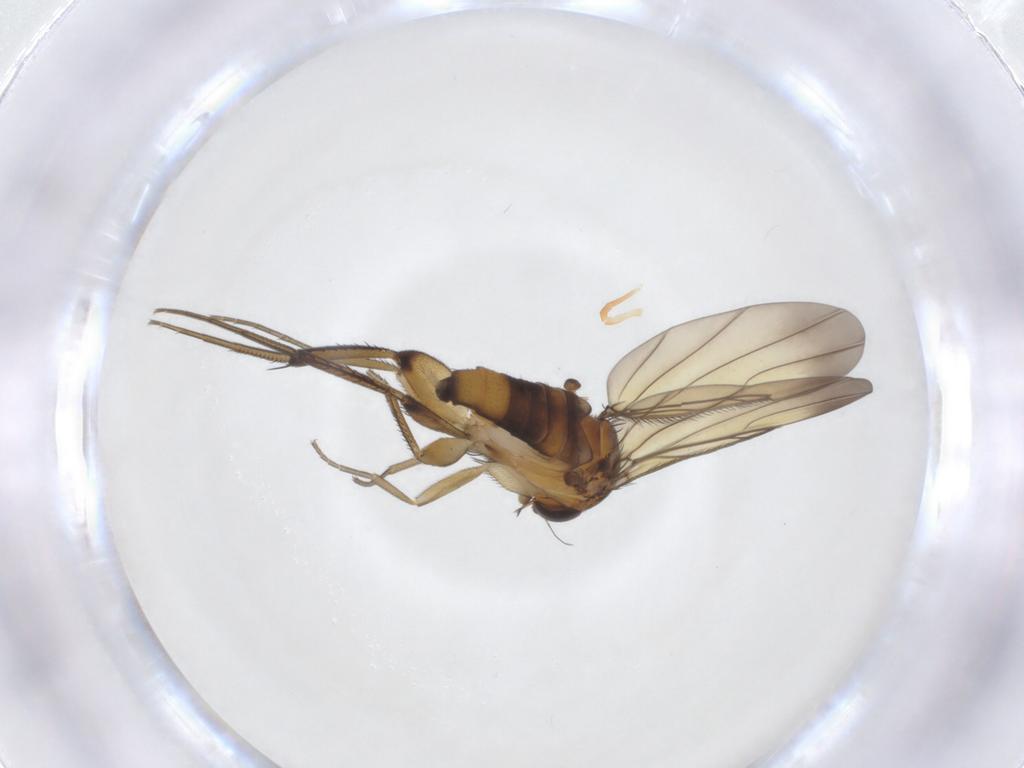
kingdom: Animalia
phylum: Arthropoda
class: Insecta
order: Diptera
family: Phoridae
